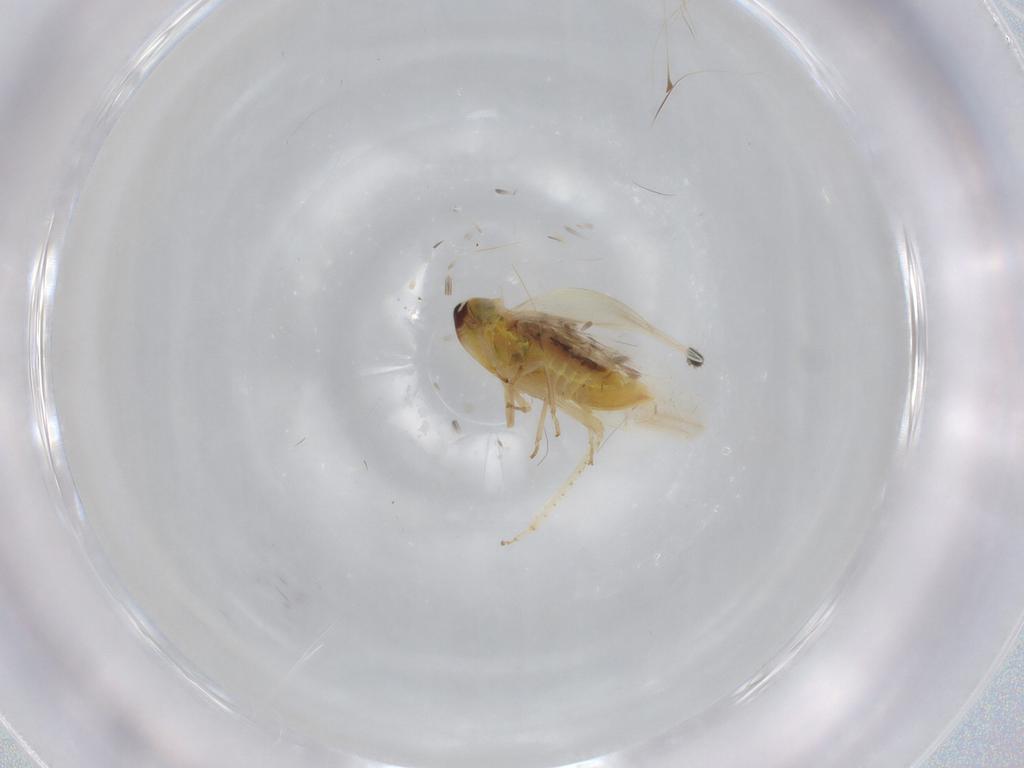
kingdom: Animalia
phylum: Arthropoda
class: Insecta
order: Hemiptera
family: Cicadellidae
